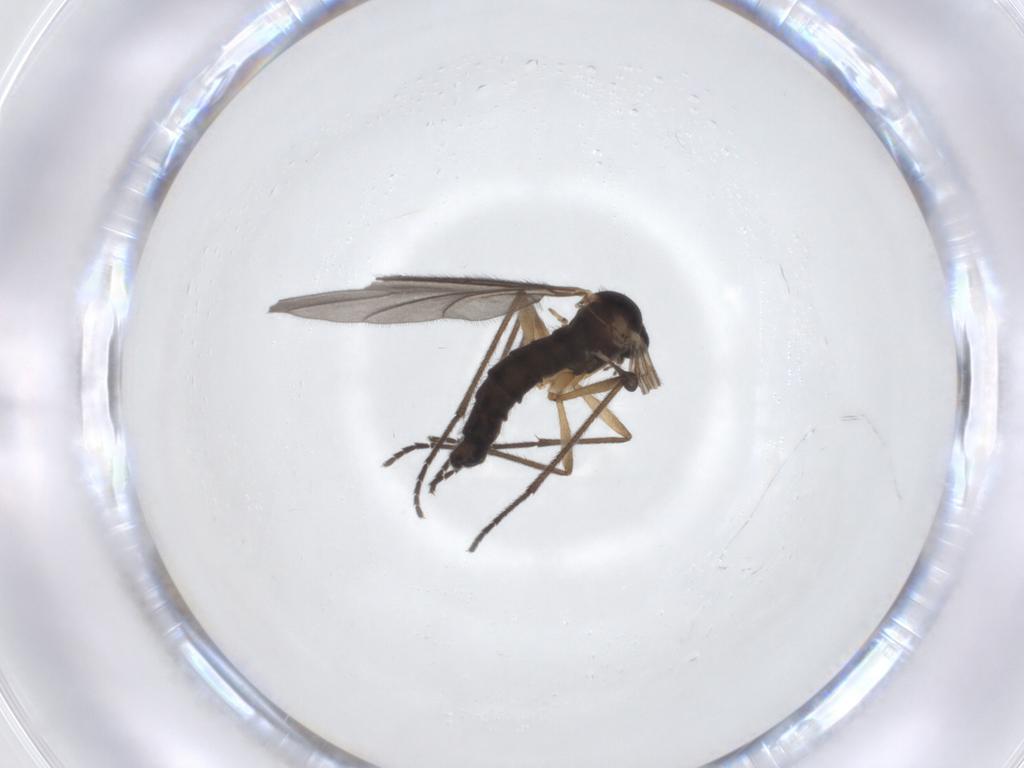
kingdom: Animalia
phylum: Arthropoda
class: Insecta
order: Diptera
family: Sciaridae
